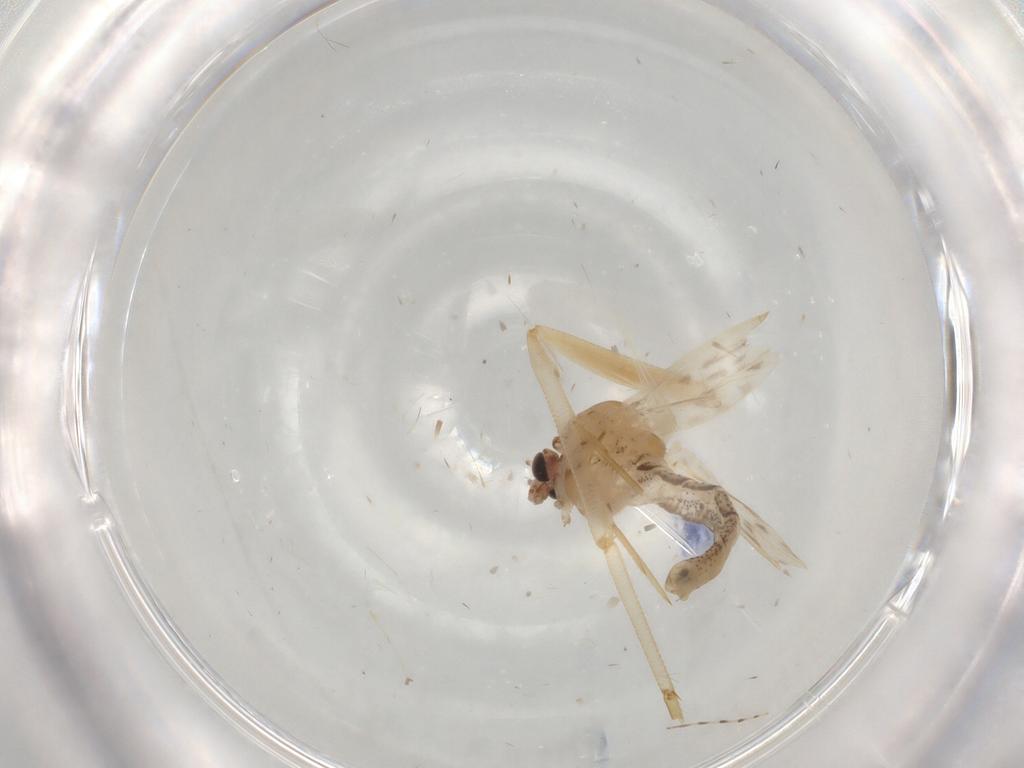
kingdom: Animalia
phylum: Arthropoda
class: Insecta
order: Diptera
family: Chaoboridae
